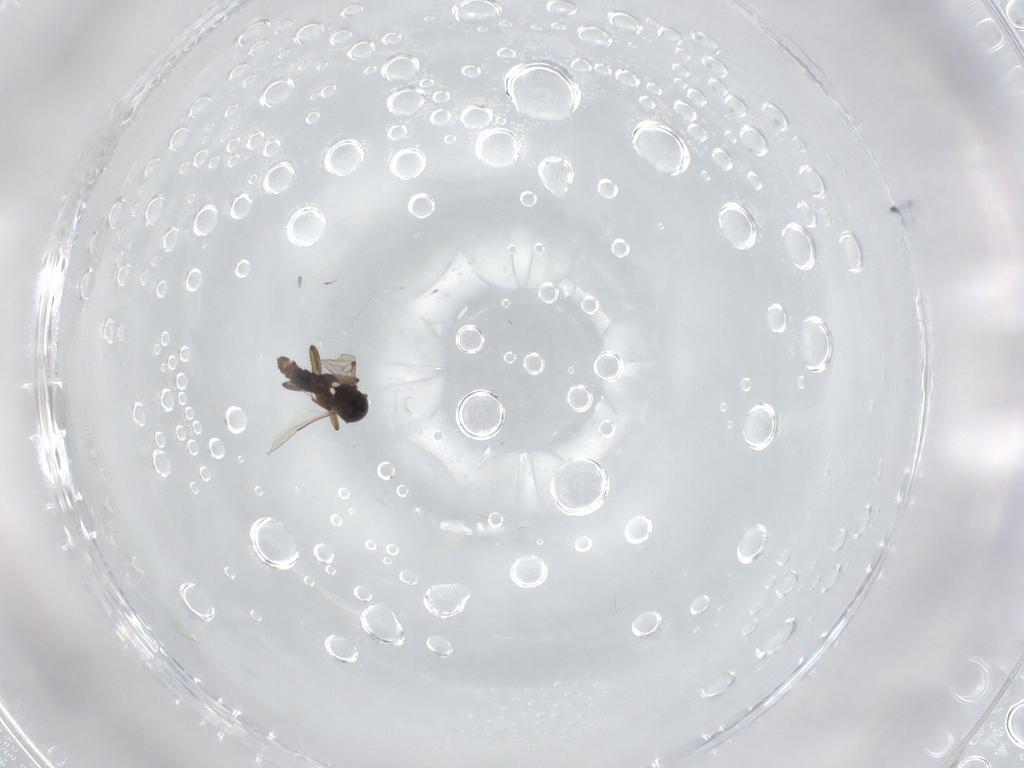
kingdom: Animalia
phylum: Arthropoda
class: Insecta
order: Diptera
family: Ceratopogonidae
